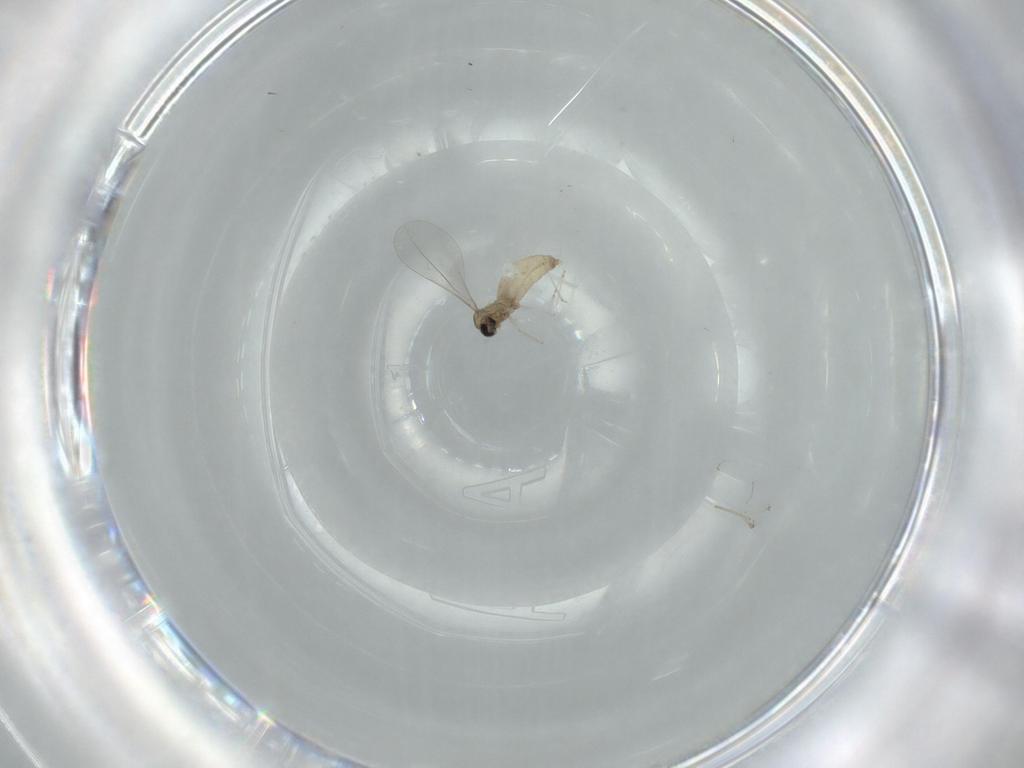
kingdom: Animalia
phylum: Arthropoda
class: Insecta
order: Diptera
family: Cecidomyiidae
